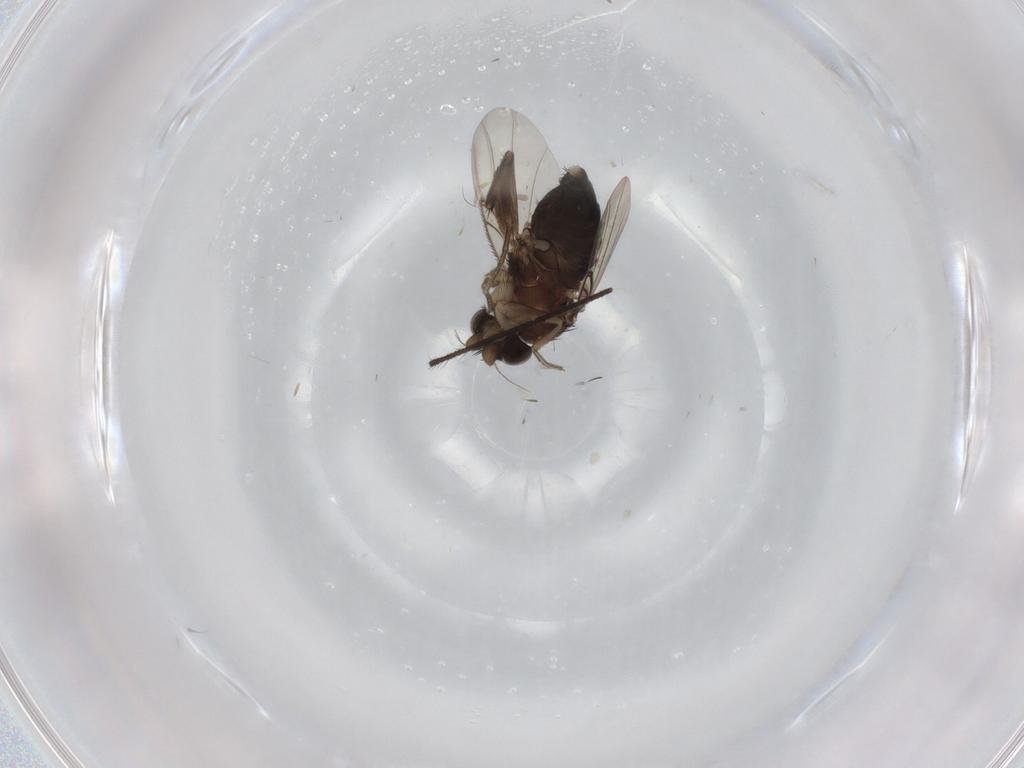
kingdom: Animalia
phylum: Arthropoda
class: Insecta
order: Diptera
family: Phoridae
